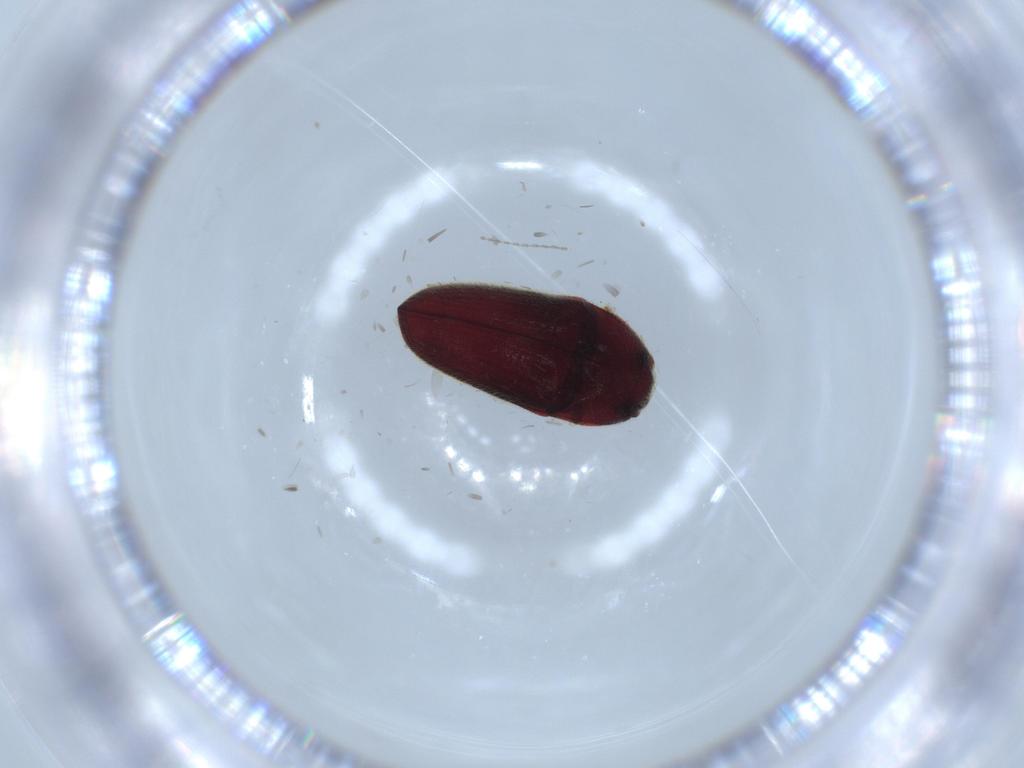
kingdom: Animalia
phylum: Arthropoda
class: Insecta
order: Coleoptera
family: Throscidae
